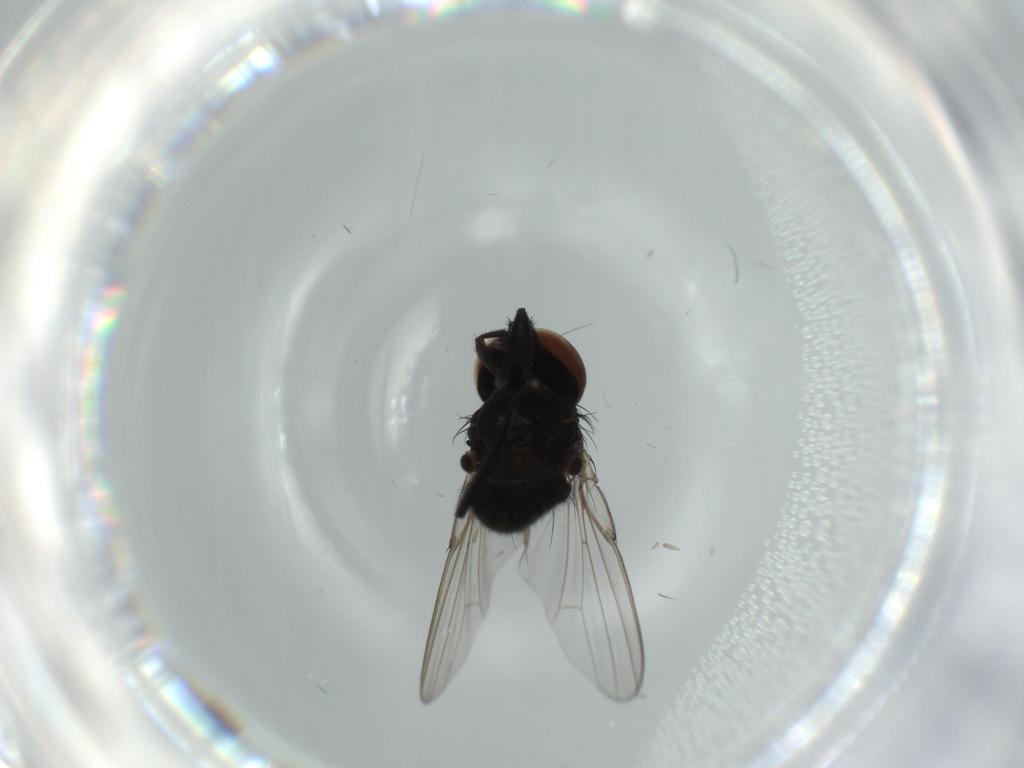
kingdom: Animalia
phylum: Arthropoda
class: Insecta
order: Diptera
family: Milichiidae
